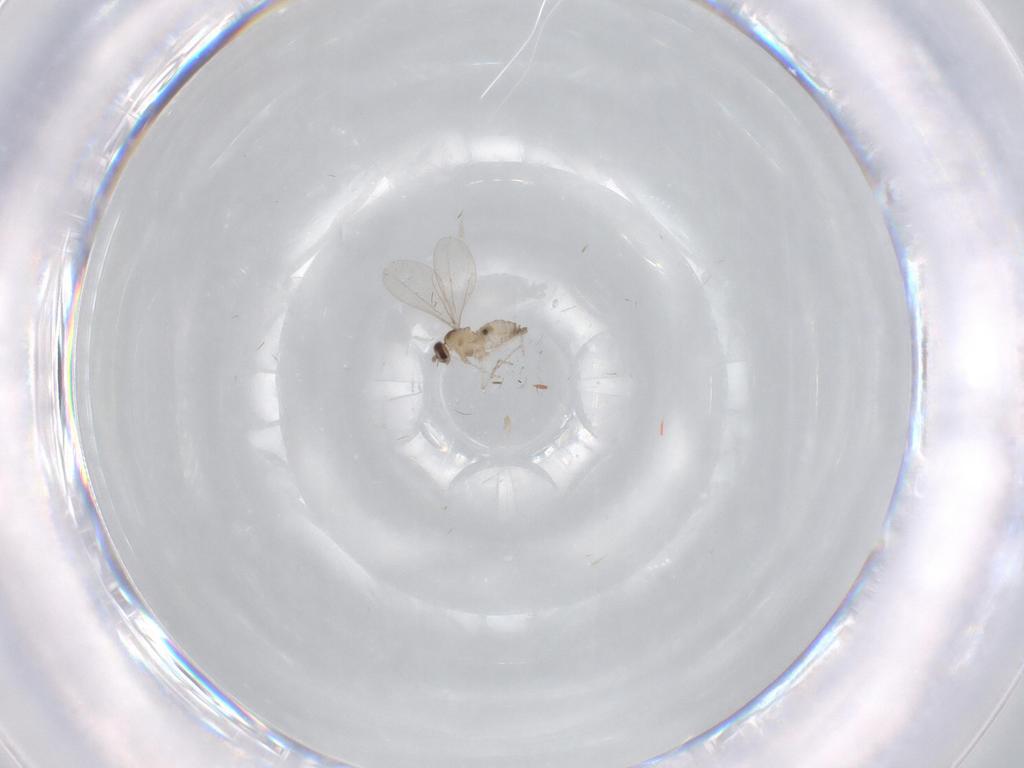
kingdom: Animalia
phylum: Arthropoda
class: Insecta
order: Diptera
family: Cecidomyiidae
